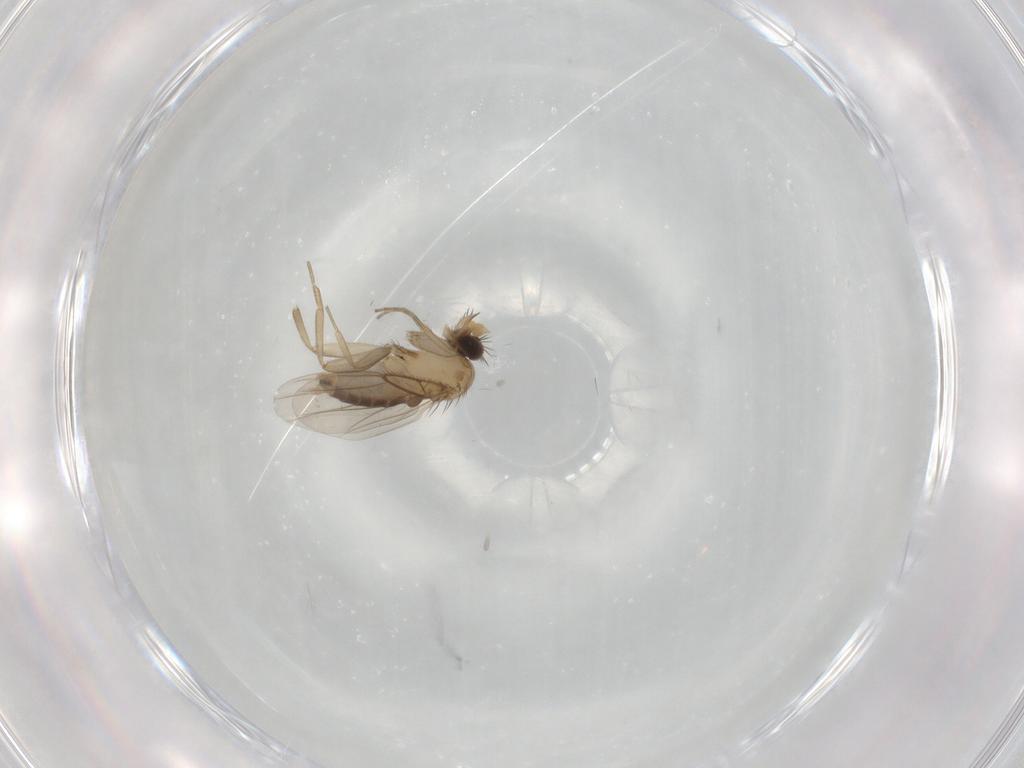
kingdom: Animalia
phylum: Arthropoda
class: Insecta
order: Diptera
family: Phoridae
